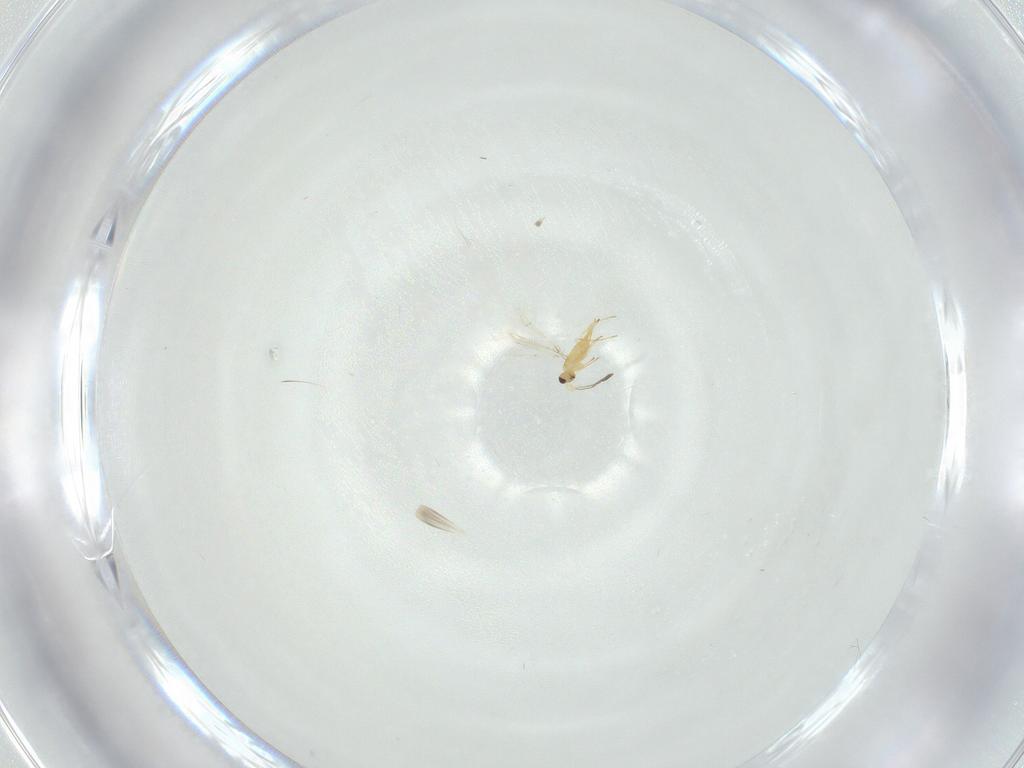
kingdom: Animalia
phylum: Arthropoda
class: Insecta
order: Hymenoptera
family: Mymaridae
